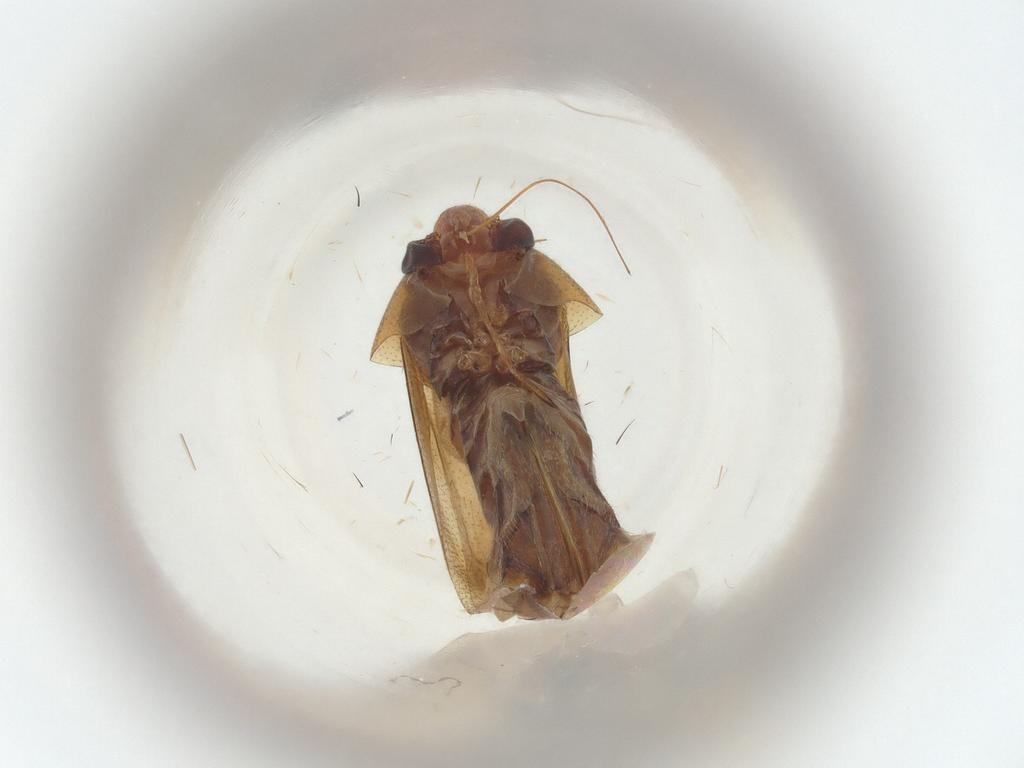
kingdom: Animalia
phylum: Arthropoda
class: Insecta
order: Hemiptera
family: Miridae
